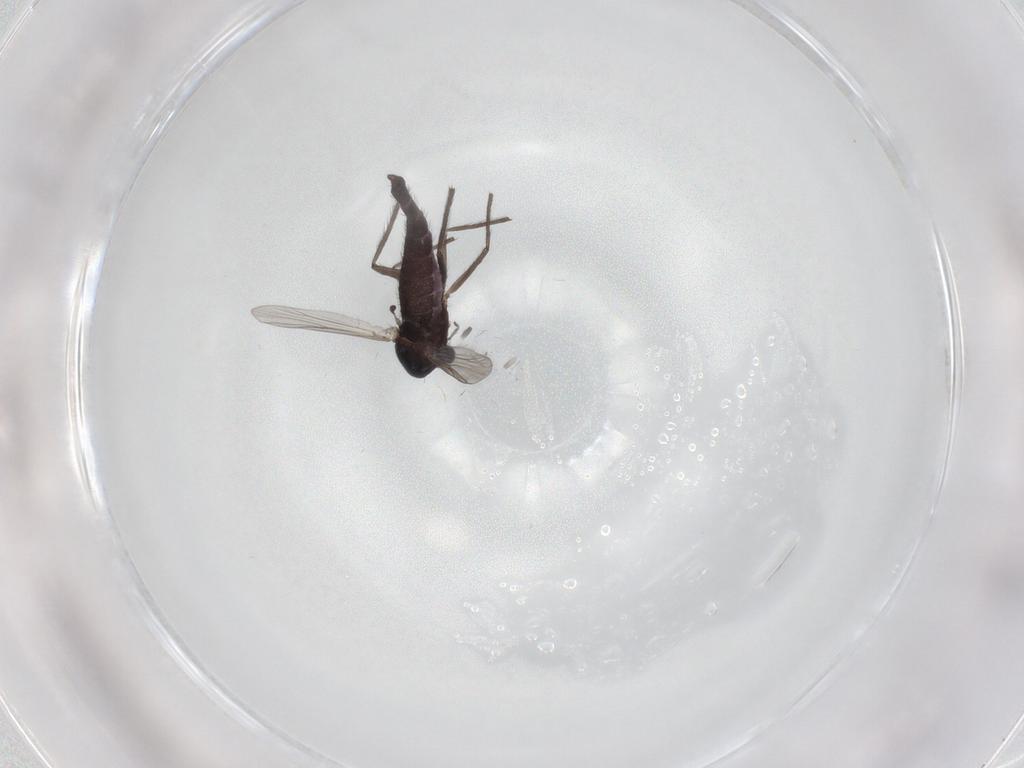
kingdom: Animalia
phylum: Arthropoda
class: Insecta
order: Diptera
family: Chironomidae
